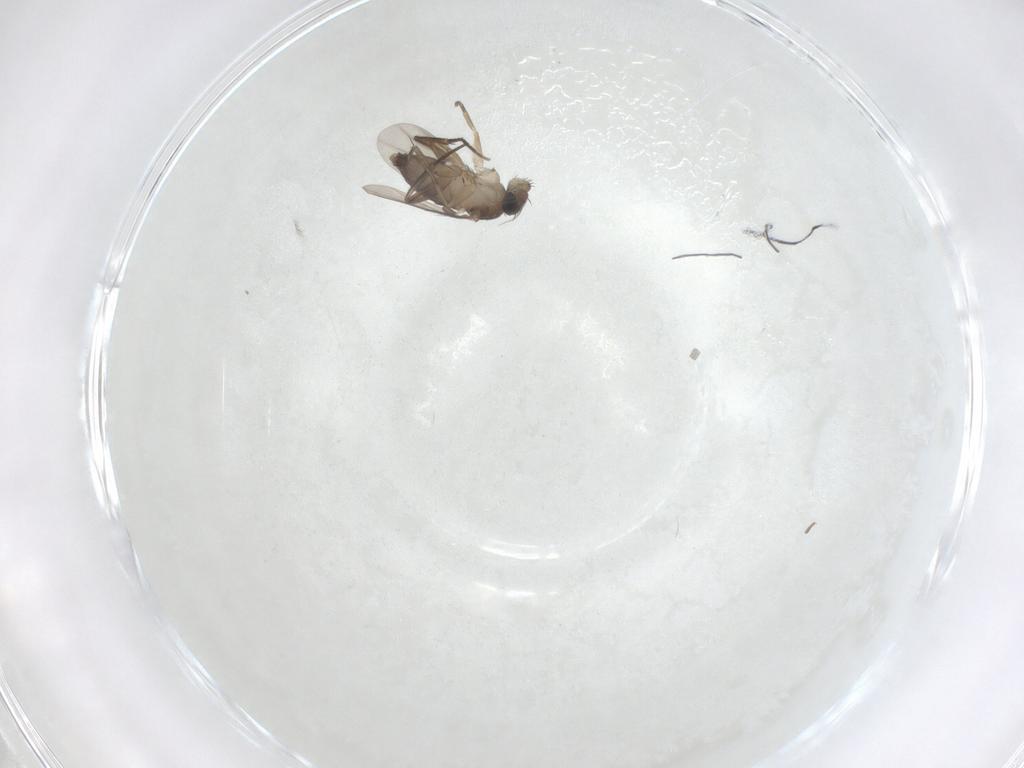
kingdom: Animalia
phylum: Arthropoda
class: Insecta
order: Diptera
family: Phoridae
